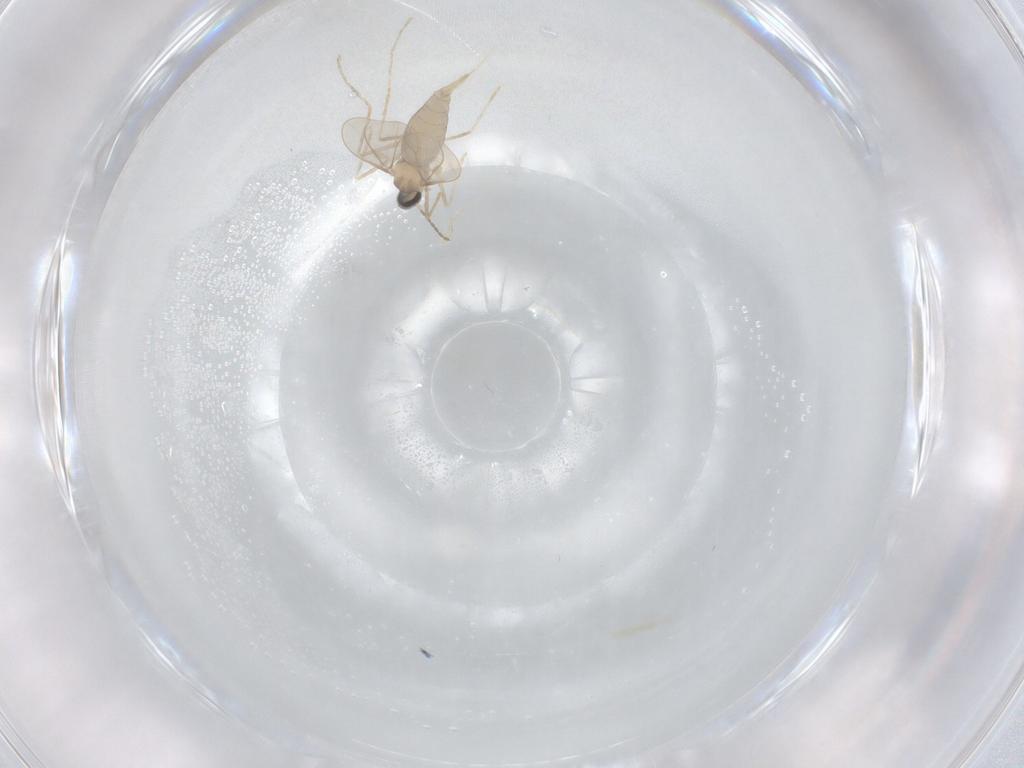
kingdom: Animalia
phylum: Arthropoda
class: Insecta
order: Diptera
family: Cecidomyiidae
